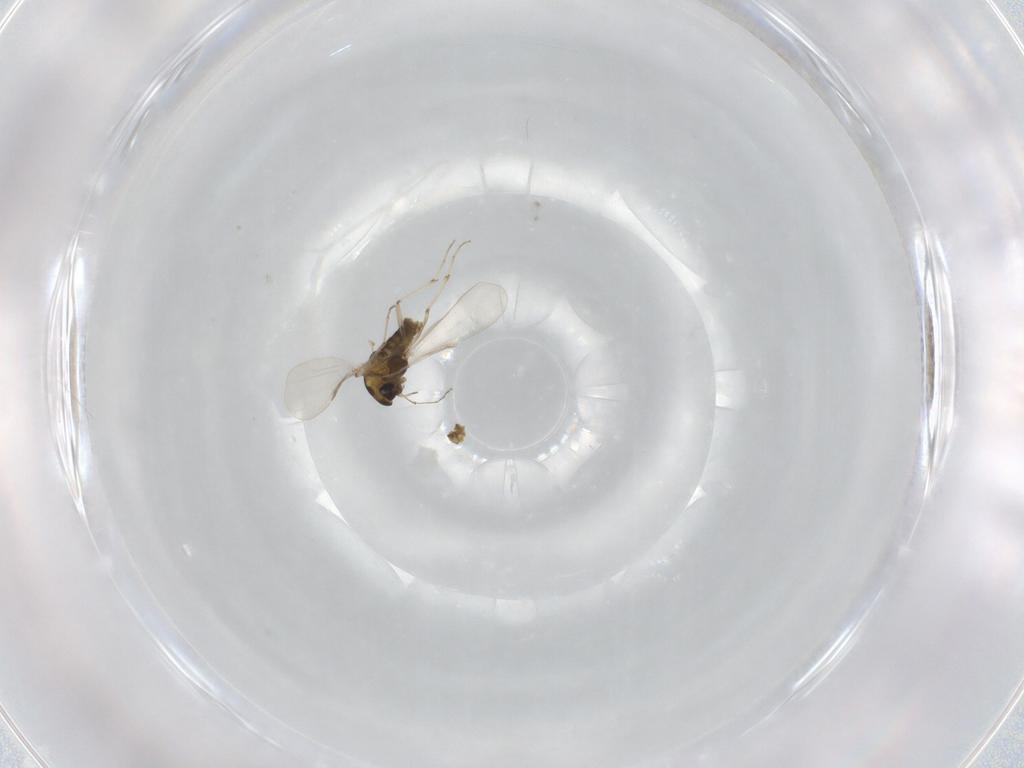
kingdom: Animalia
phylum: Arthropoda
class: Insecta
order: Diptera
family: Chironomidae
